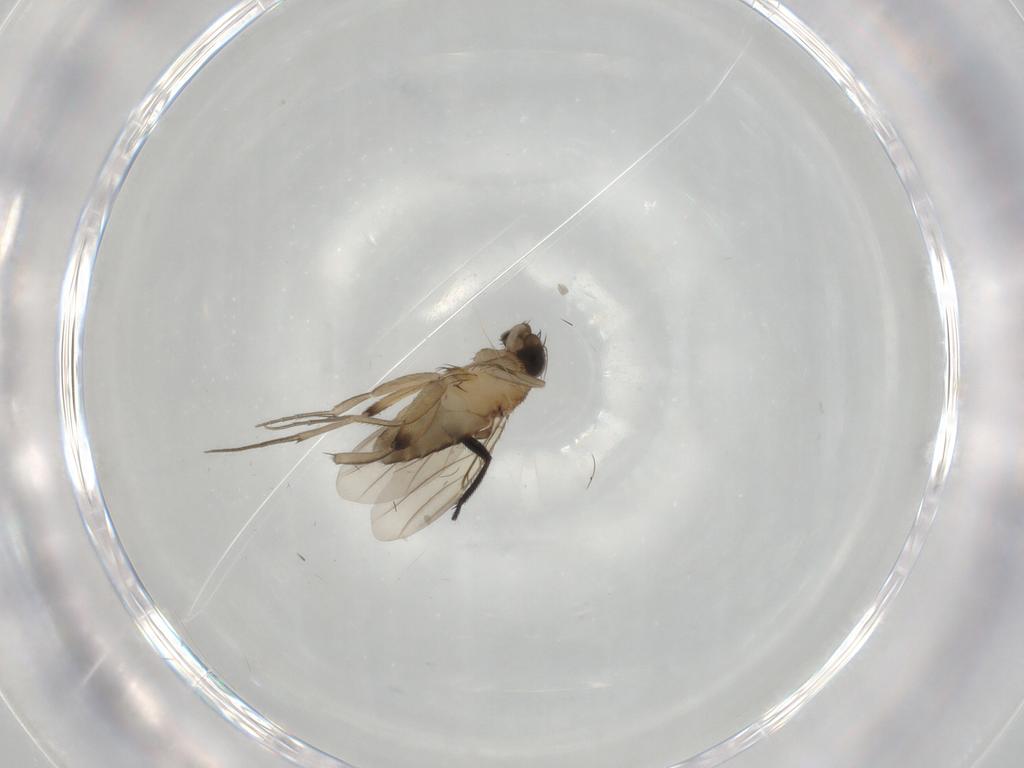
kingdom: Animalia
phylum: Arthropoda
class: Insecta
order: Diptera
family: Phoridae
